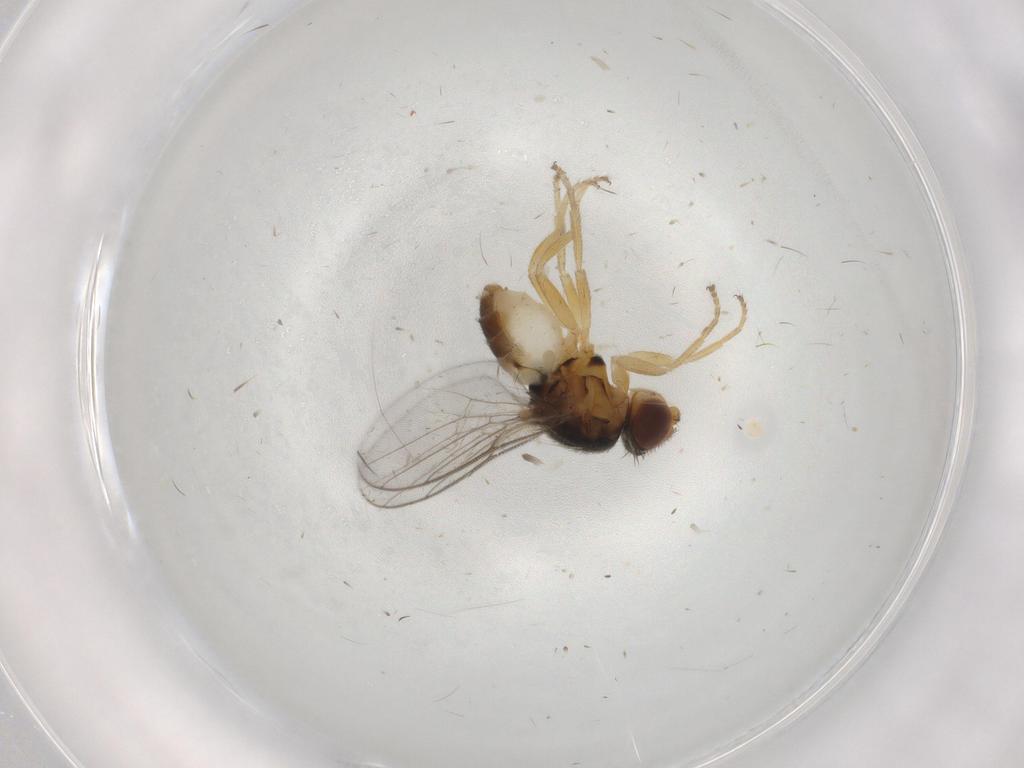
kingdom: Animalia
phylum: Arthropoda
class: Insecta
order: Diptera
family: Chloropidae
